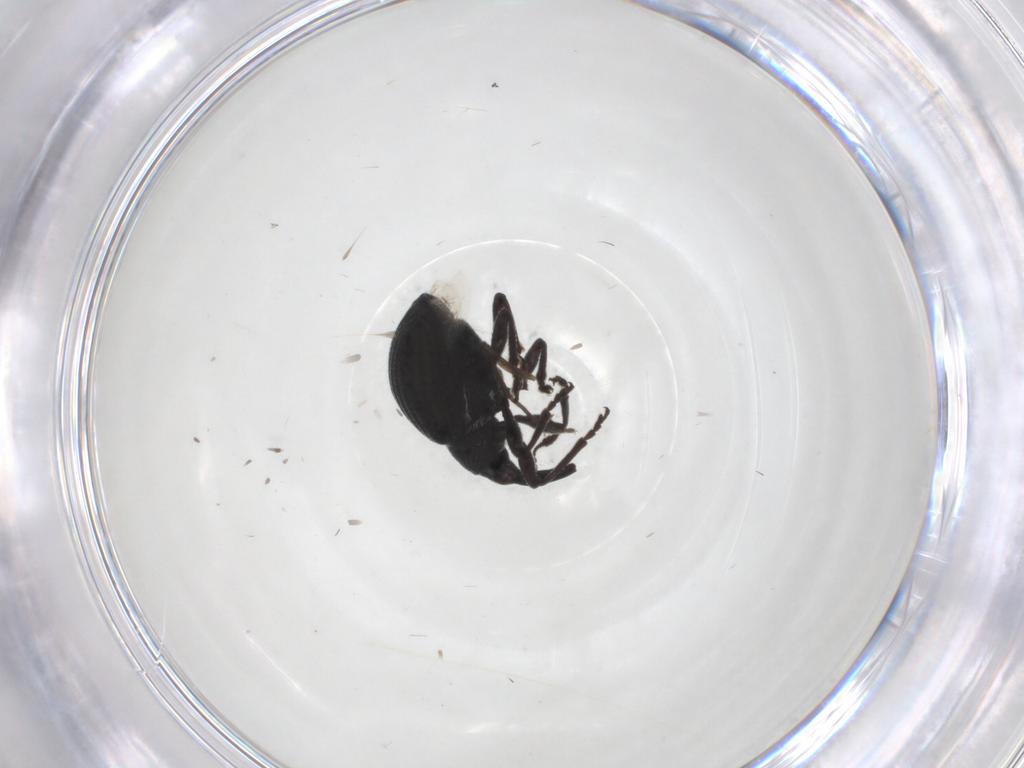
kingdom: Animalia
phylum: Arthropoda
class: Insecta
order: Coleoptera
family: Brentidae
